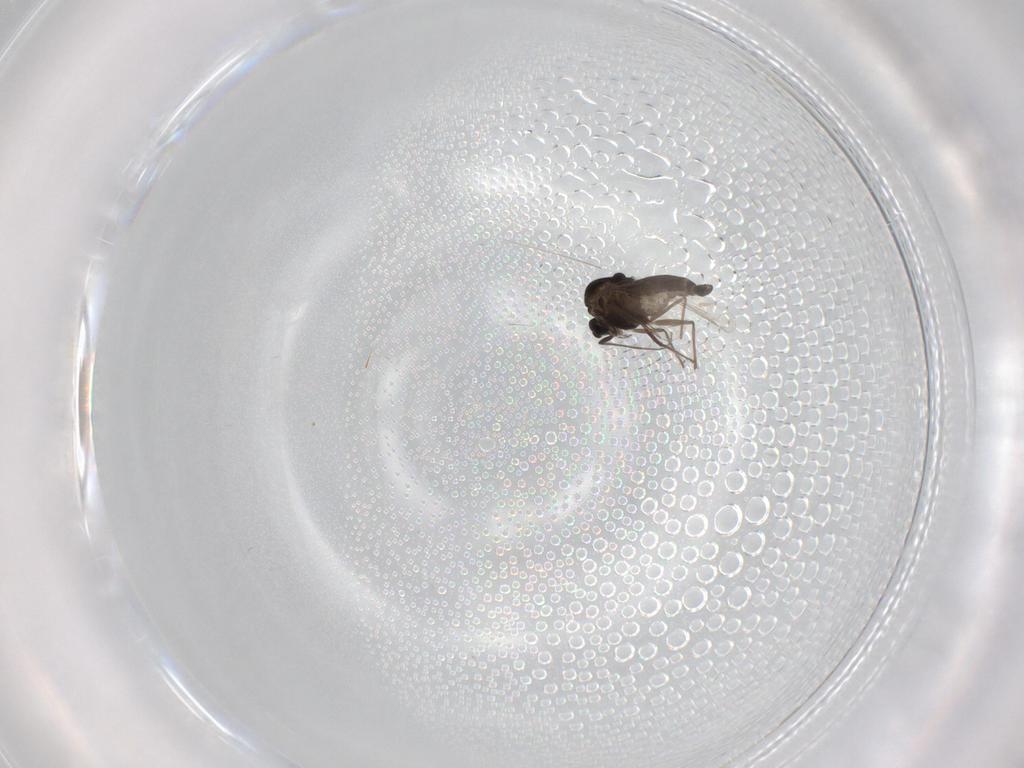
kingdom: Animalia
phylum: Arthropoda
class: Insecta
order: Diptera
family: Chironomidae
